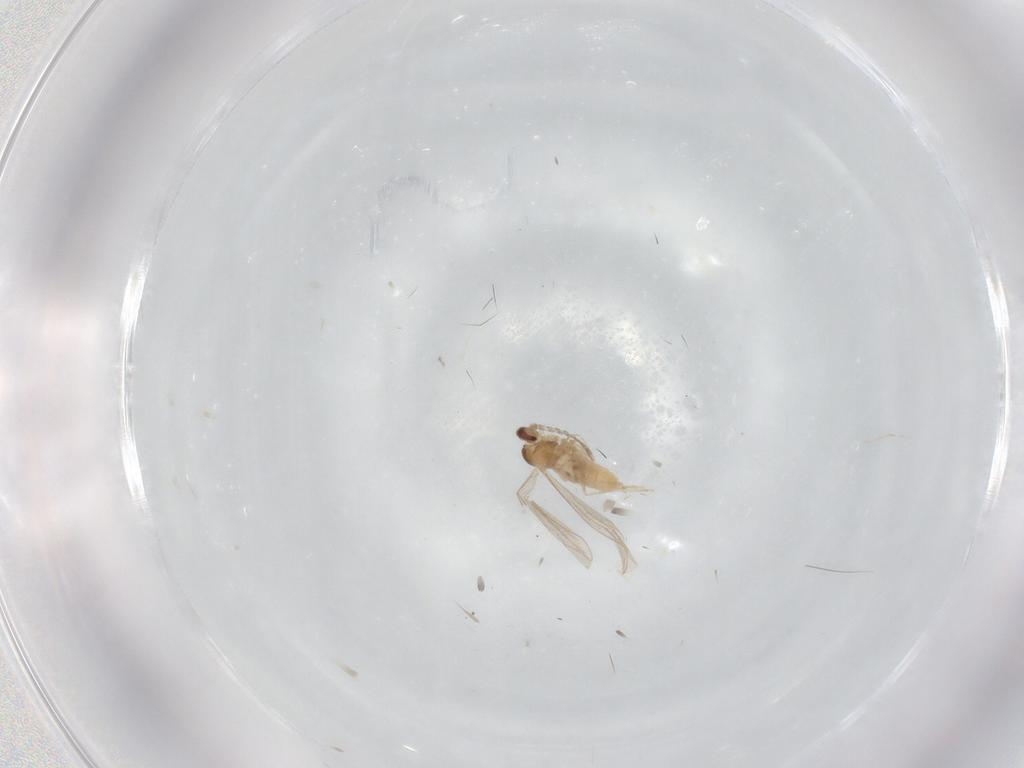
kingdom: Animalia
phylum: Arthropoda
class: Insecta
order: Diptera
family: Cecidomyiidae
